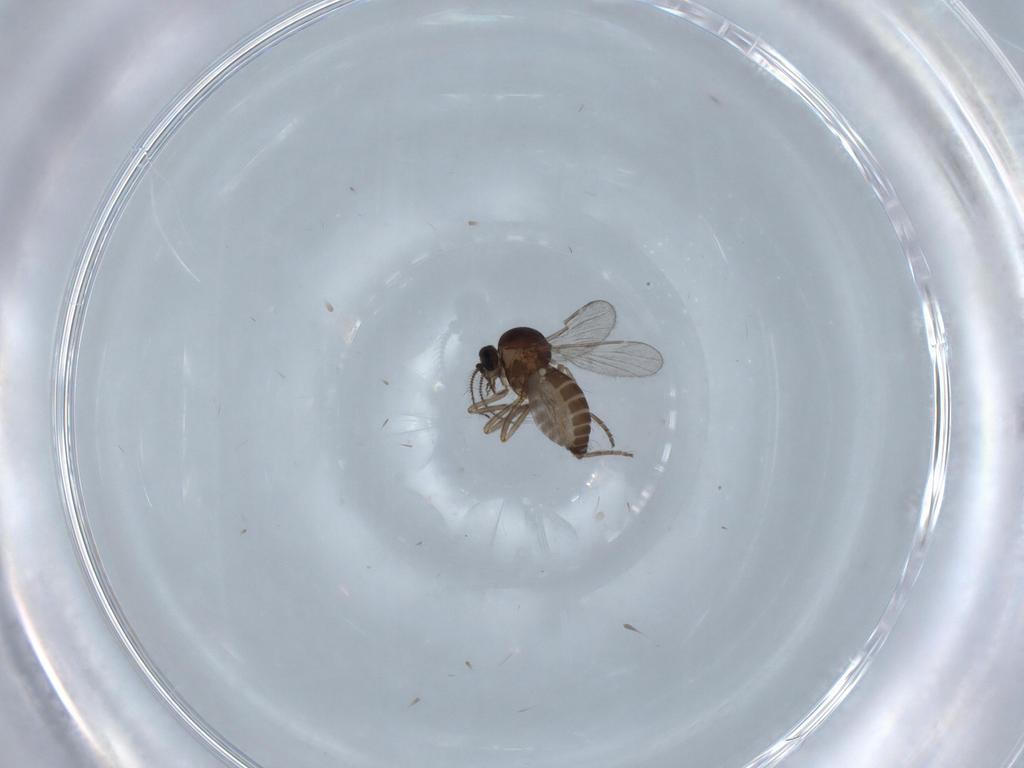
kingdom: Animalia
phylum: Arthropoda
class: Insecta
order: Diptera
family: Chironomidae
